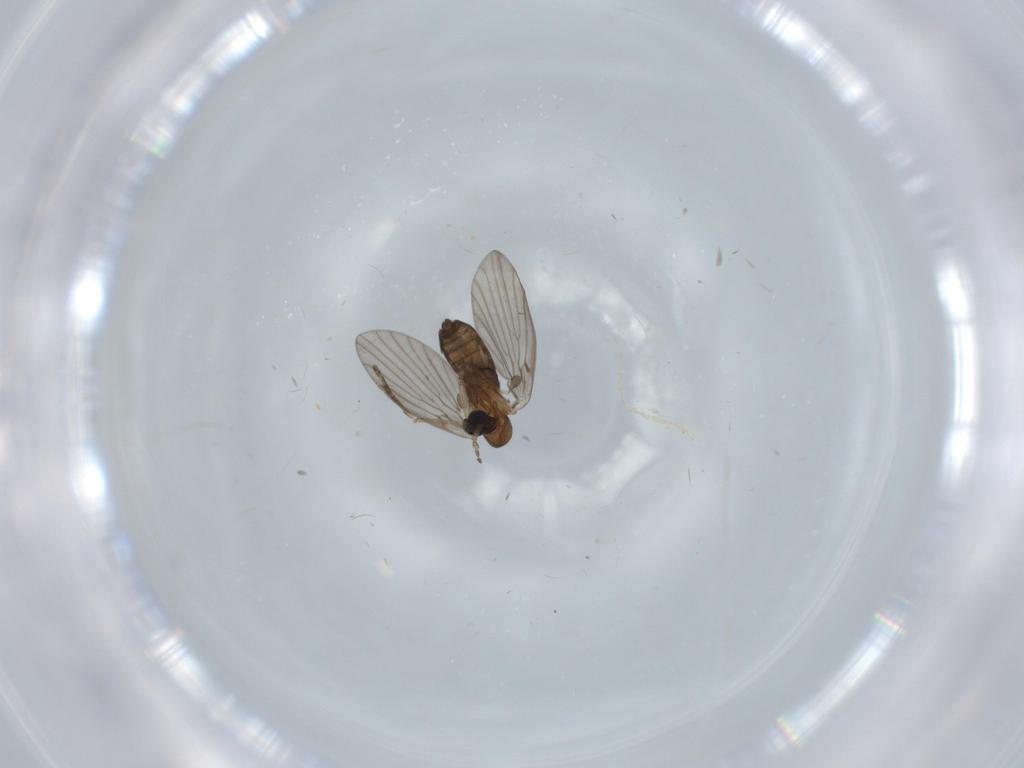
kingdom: Animalia
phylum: Arthropoda
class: Insecta
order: Diptera
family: Psychodidae
